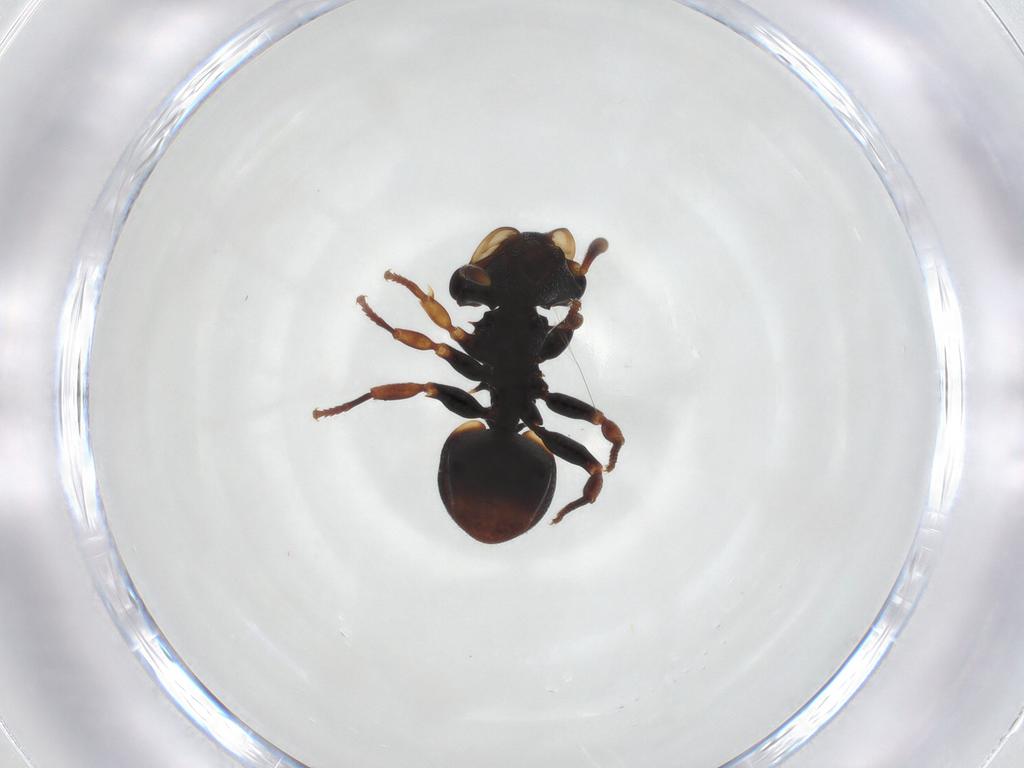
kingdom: Animalia
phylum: Arthropoda
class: Insecta
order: Hymenoptera
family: Formicidae
